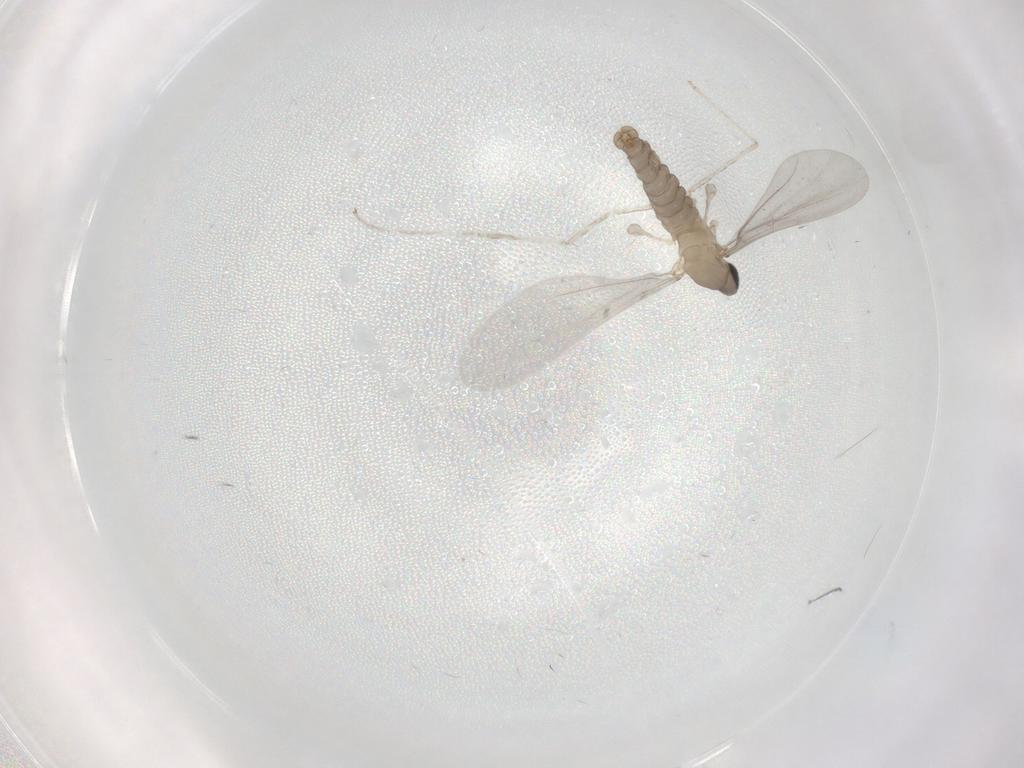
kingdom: Animalia
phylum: Arthropoda
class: Insecta
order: Diptera
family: Cecidomyiidae
